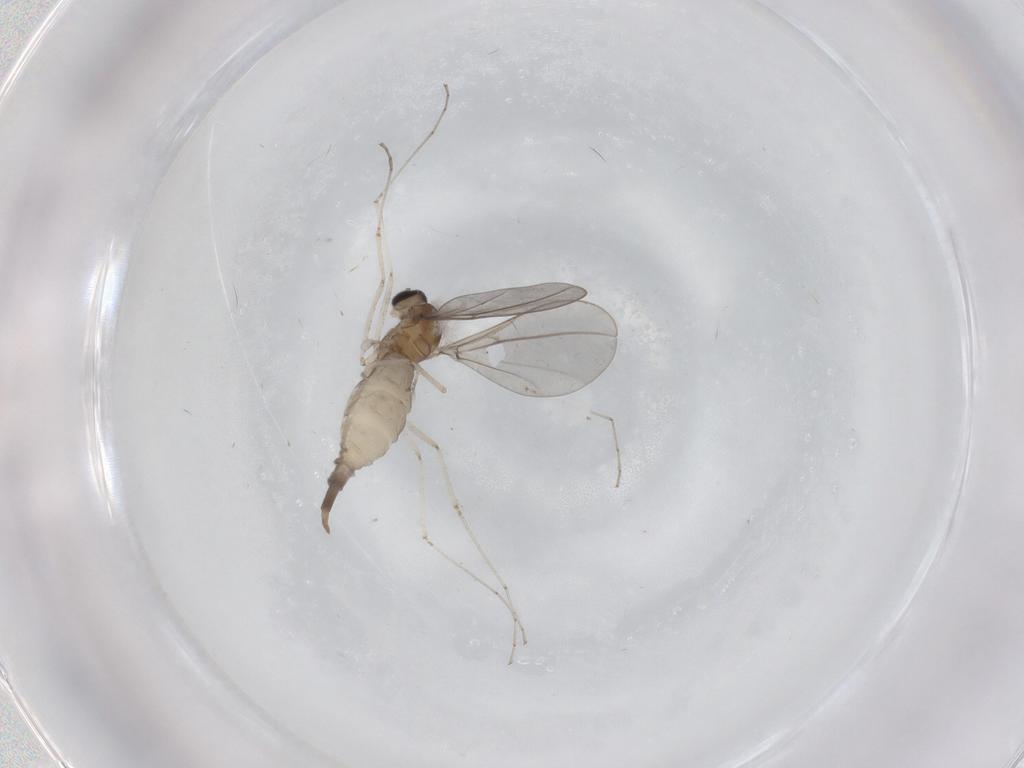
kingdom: Animalia
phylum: Arthropoda
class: Insecta
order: Diptera
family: Cecidomyiidae
